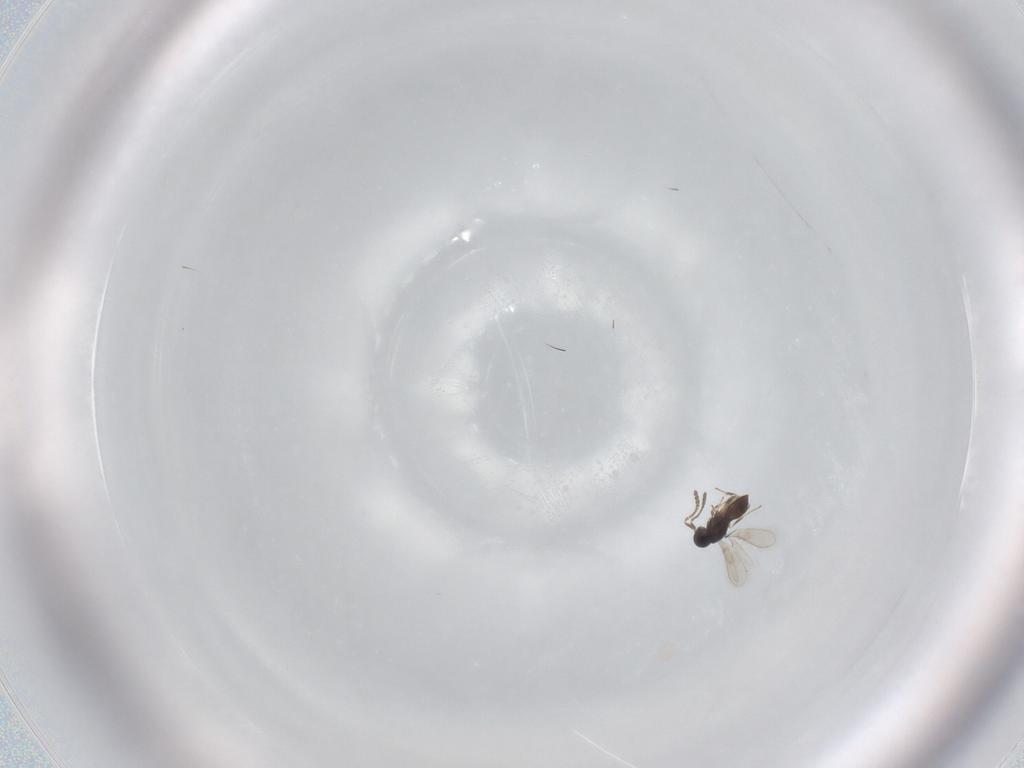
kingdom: Animalia
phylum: Arthropoda
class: Insecta
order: Hymenoptera
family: Scelionidae
